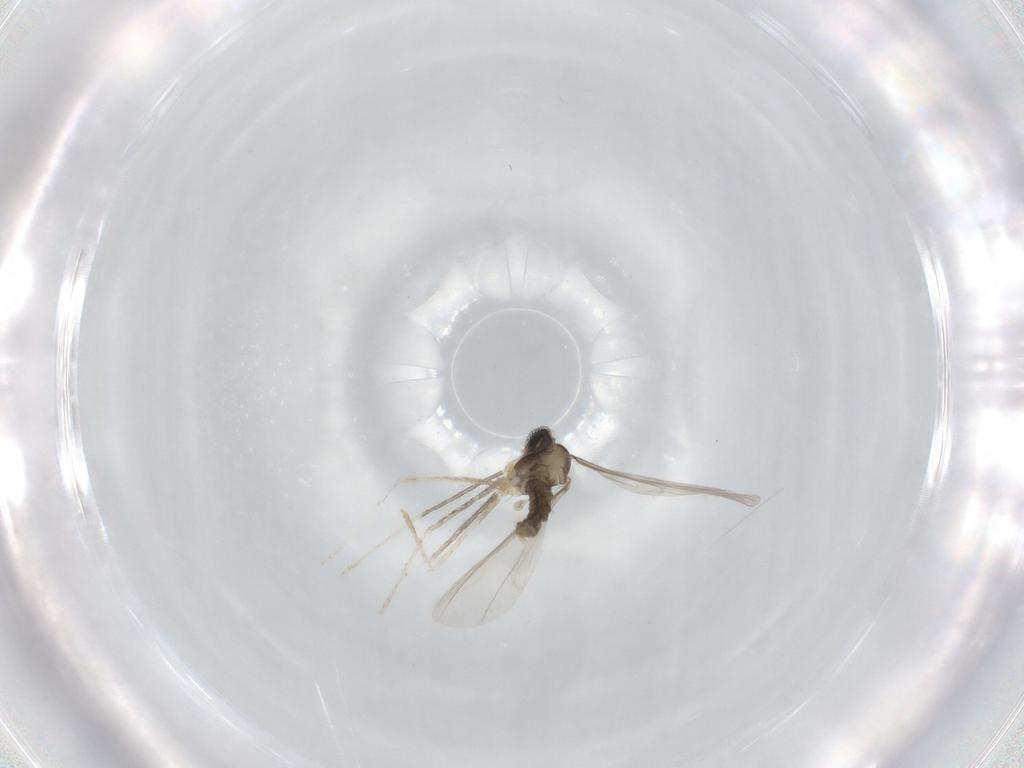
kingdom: Animalia
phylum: Arthropoda
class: Insecta
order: Diptera
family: Cecidomyiidae
